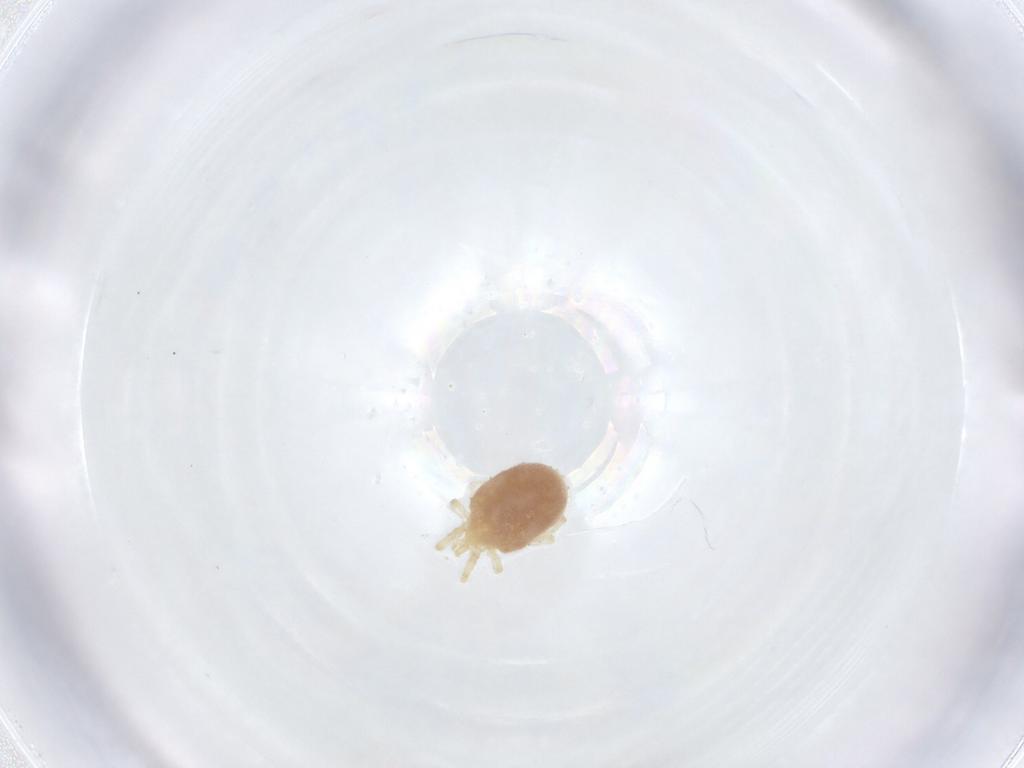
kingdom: Animalia
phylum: Arthropoda
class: Arachnida
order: Trombidiformes
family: Erythraeidae
